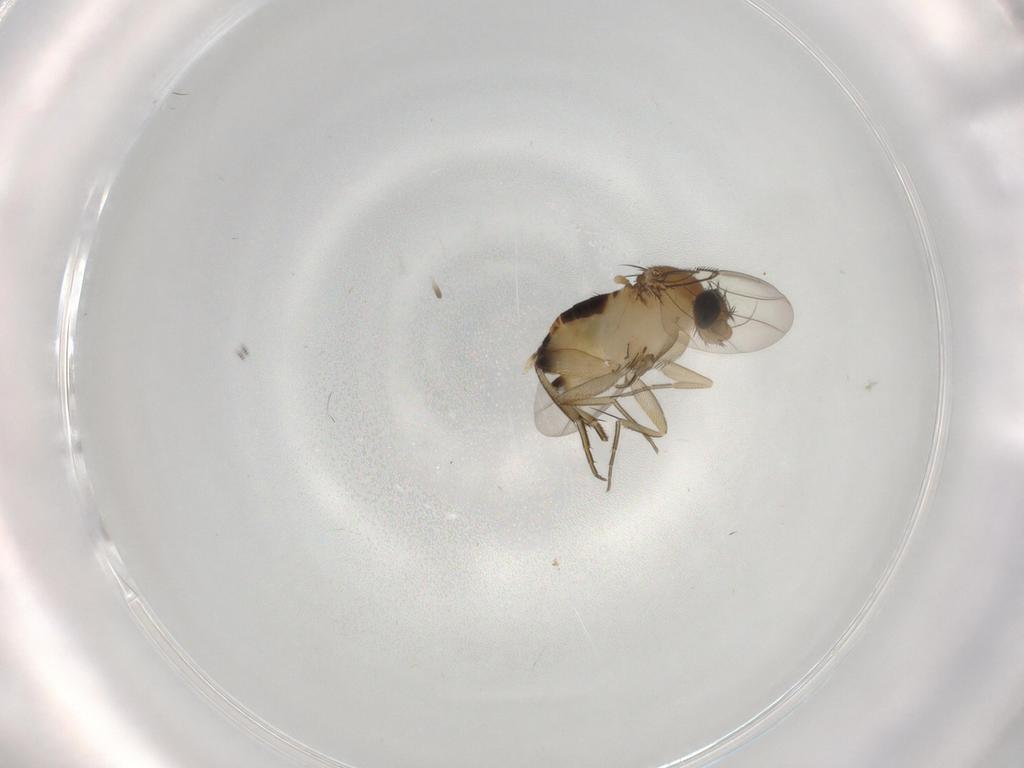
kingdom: Animalia
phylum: Arthropoda
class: Insecta
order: Diptera
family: Phoridae
